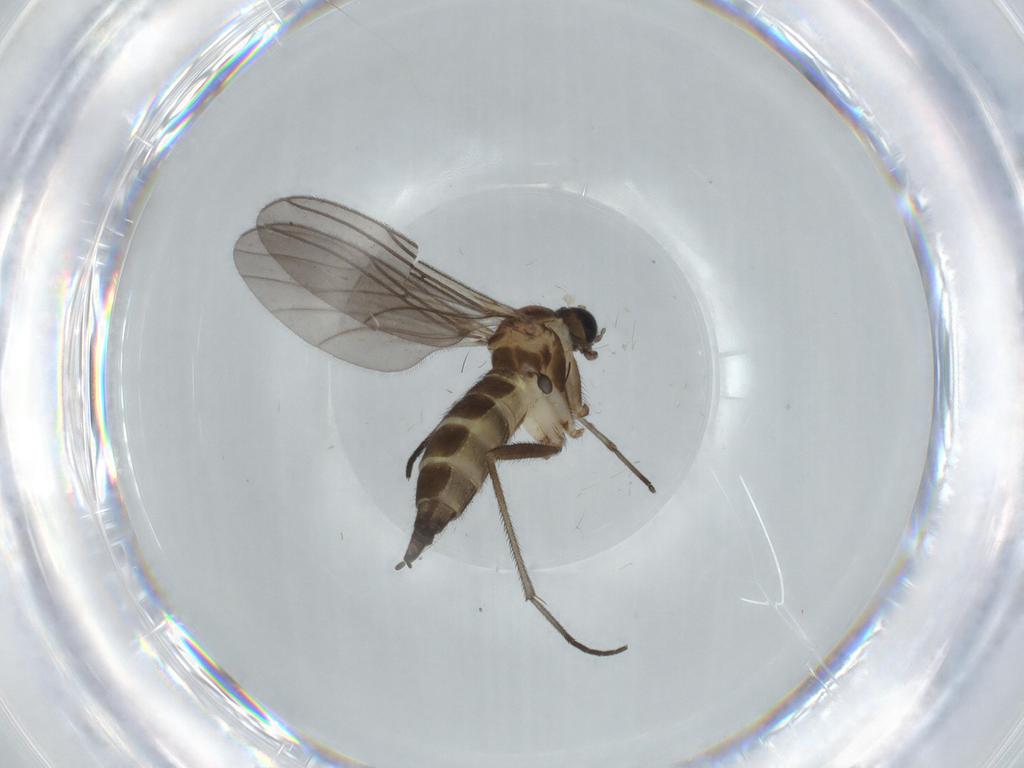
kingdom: Animalia
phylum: Arthropoda
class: Insecta
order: Diptera
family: Sciaridae
